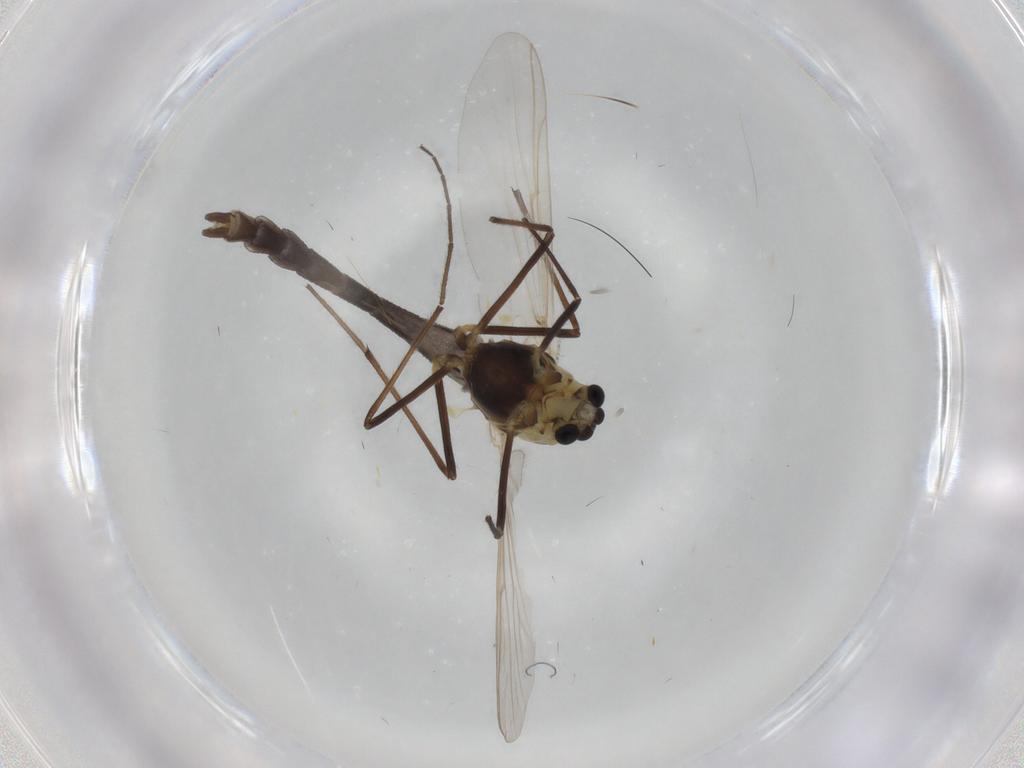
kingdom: Animalia
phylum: Arthropoda
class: Insecta
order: Diptera
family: Chironomidae
